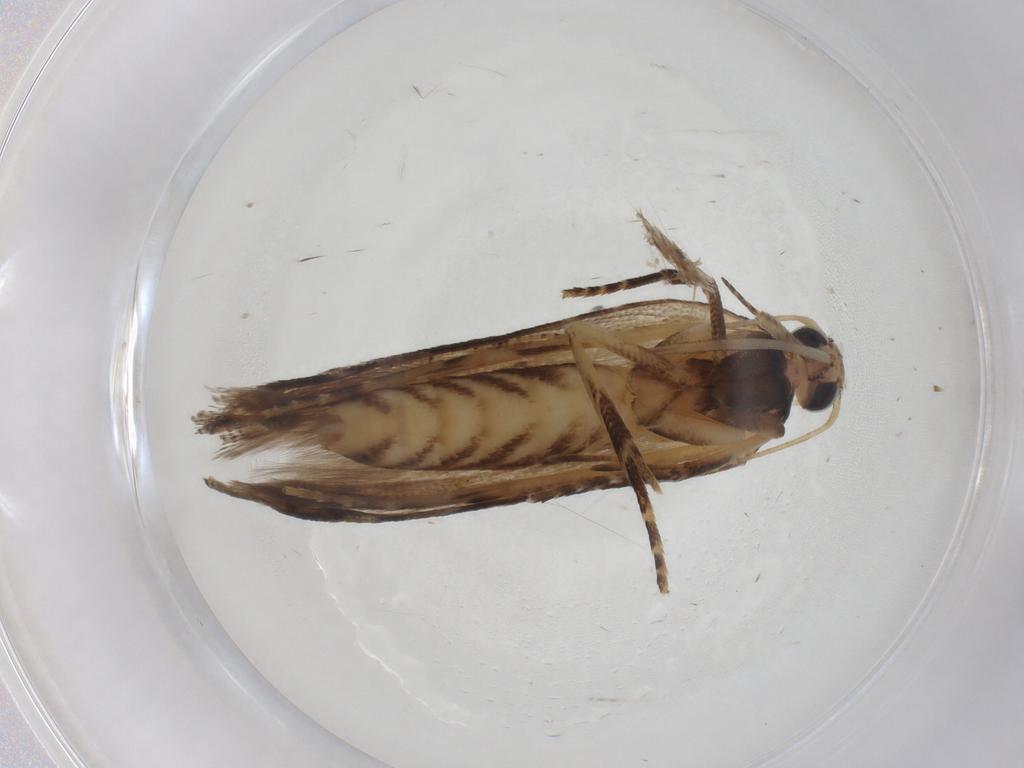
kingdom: Animalia
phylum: Arthropoda
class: Insecta
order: Lepidoptera
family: Gelechiidae
